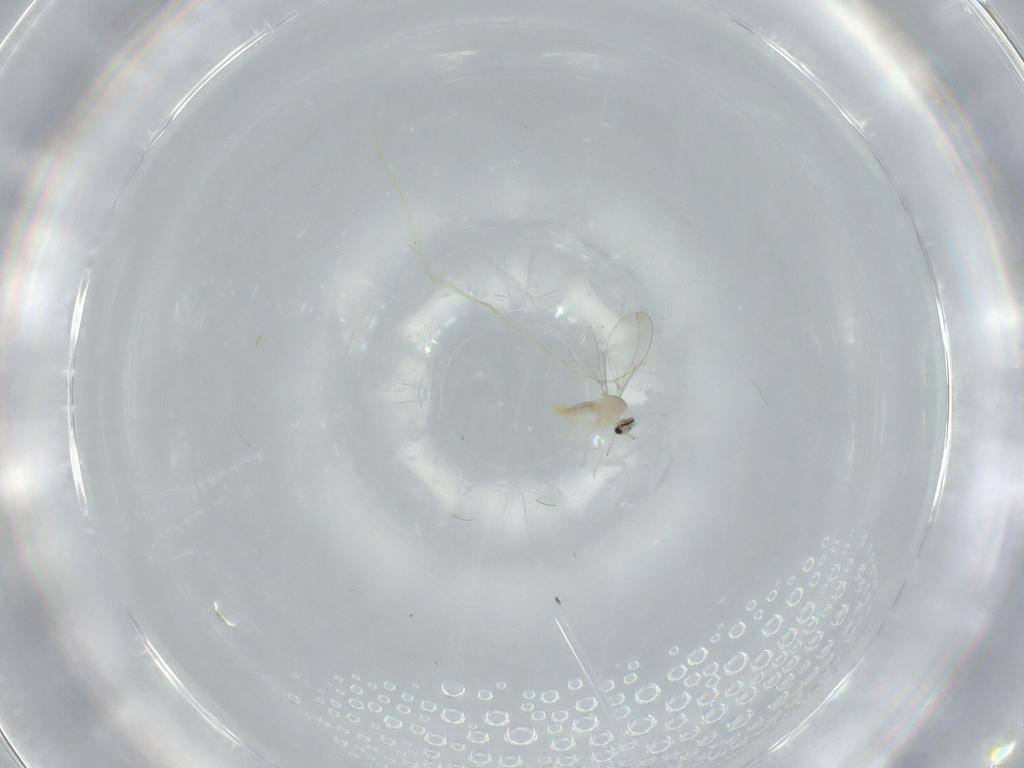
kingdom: Animalia
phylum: Arthropoda
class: Insecta
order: Diptera
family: Cecidomyiidae
